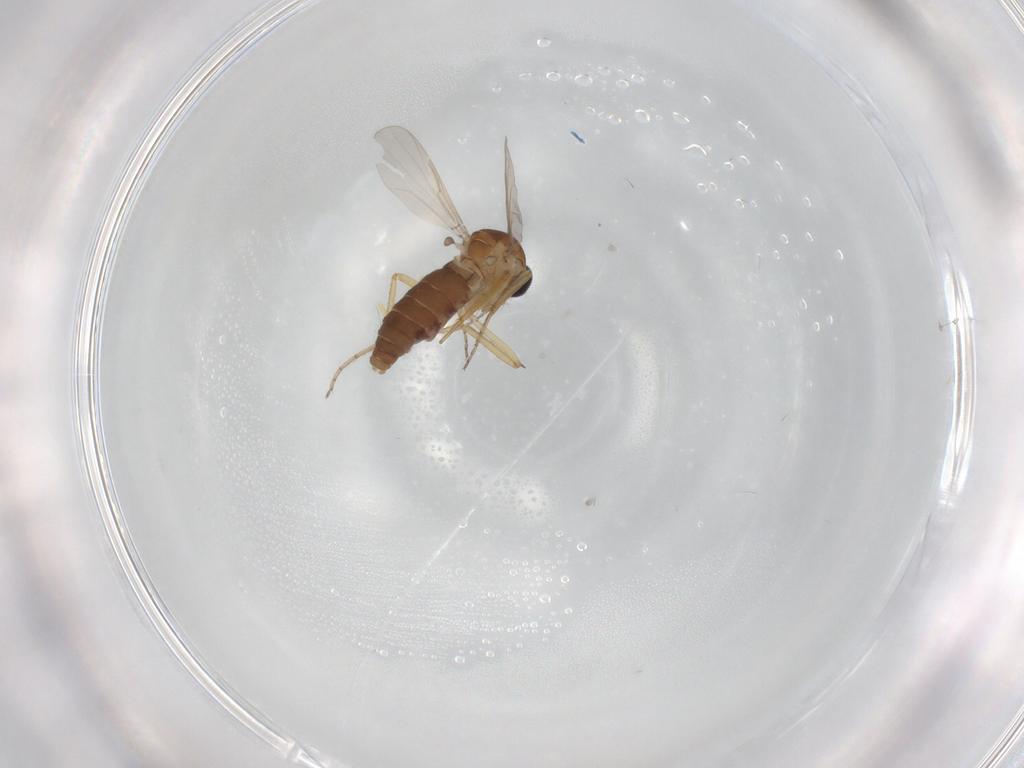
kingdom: Animalia
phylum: Arthropoda
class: Insecta
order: Diptera
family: Ceratopogonidae
